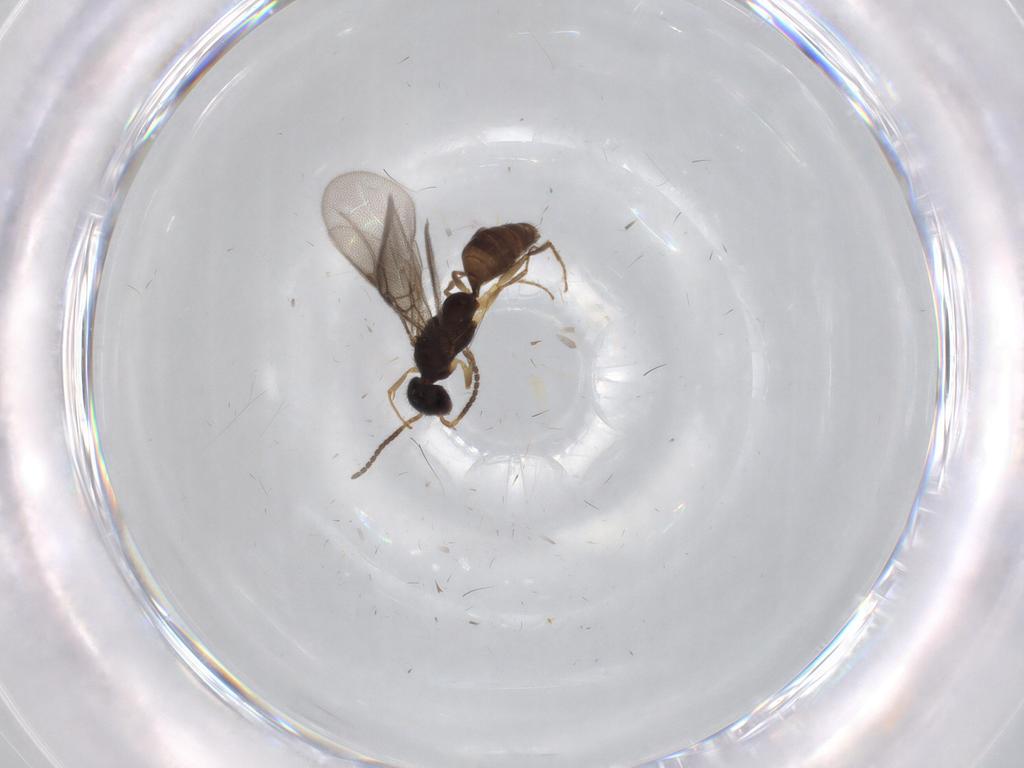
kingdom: Animalia
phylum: Arthropoda
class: Insecta
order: Hymenoptera
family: Bethylidae
